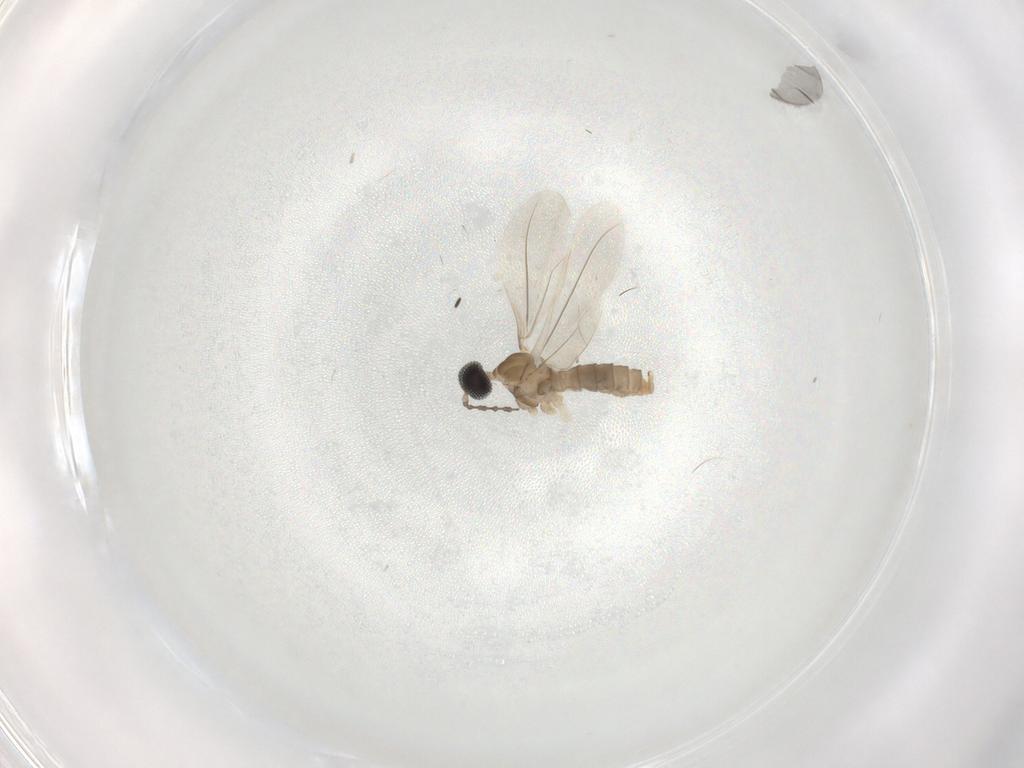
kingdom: Animalia
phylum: Arthropoda
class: Insecta
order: Diptera
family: Cecidomyiidae
